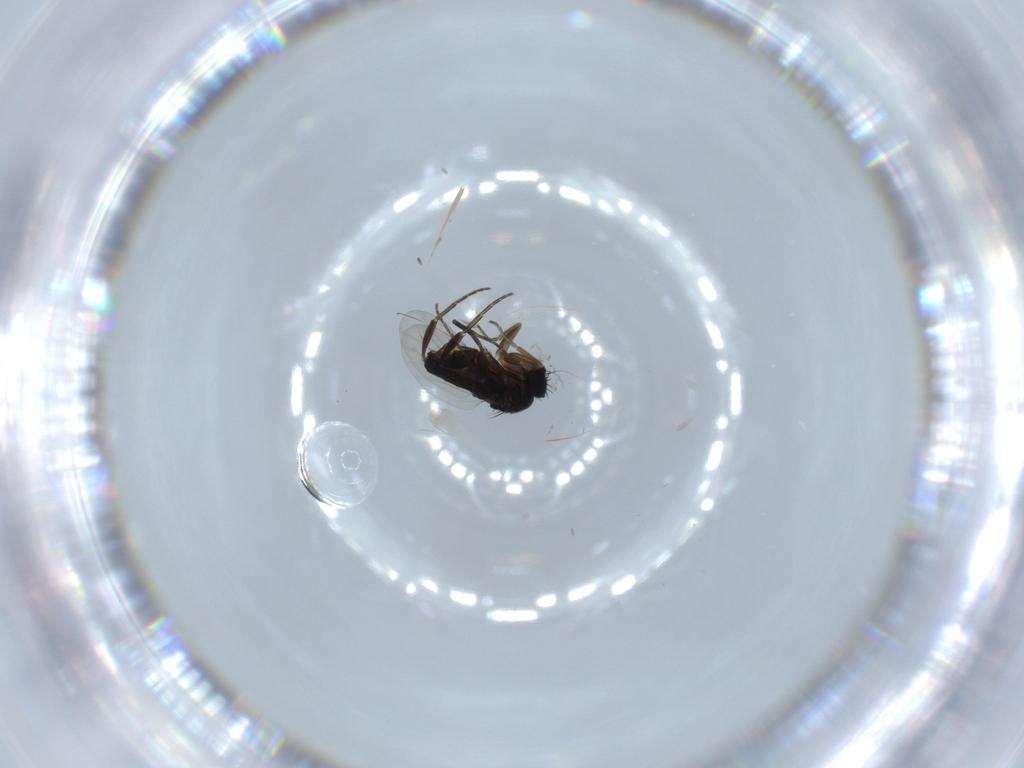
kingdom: Animalia
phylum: Arthropoda
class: Insecta
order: Diptera
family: Phoridae
